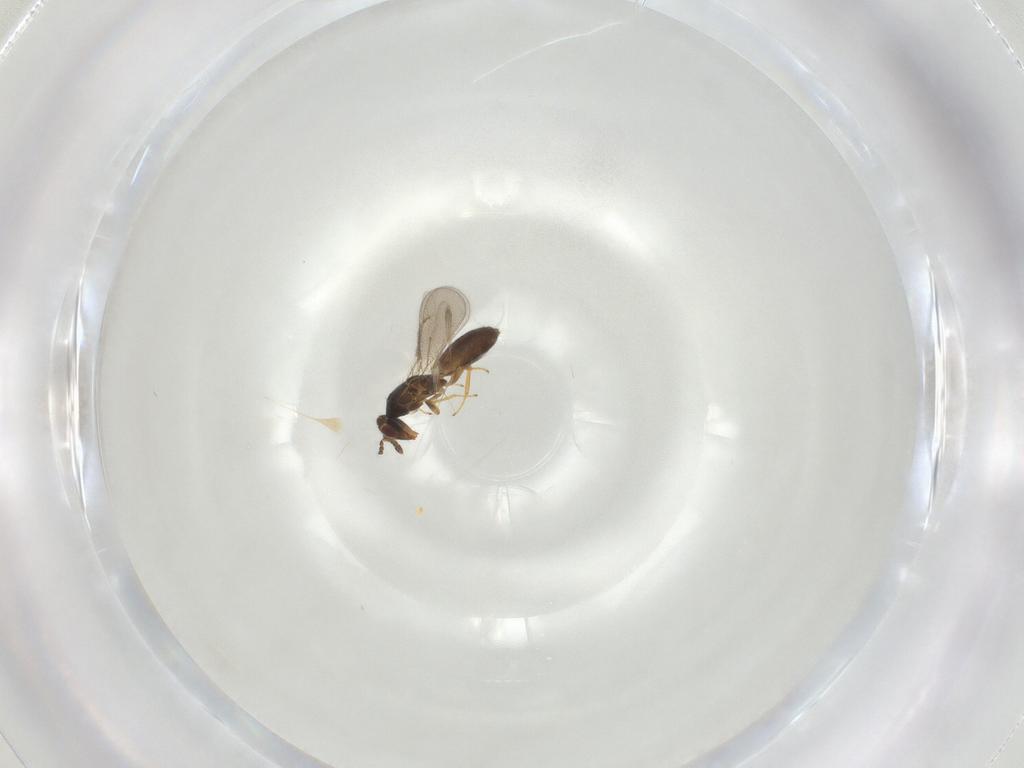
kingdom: Animalia
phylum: Arthropoda
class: Insecta
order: Hymenoptera
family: Eulophidae
